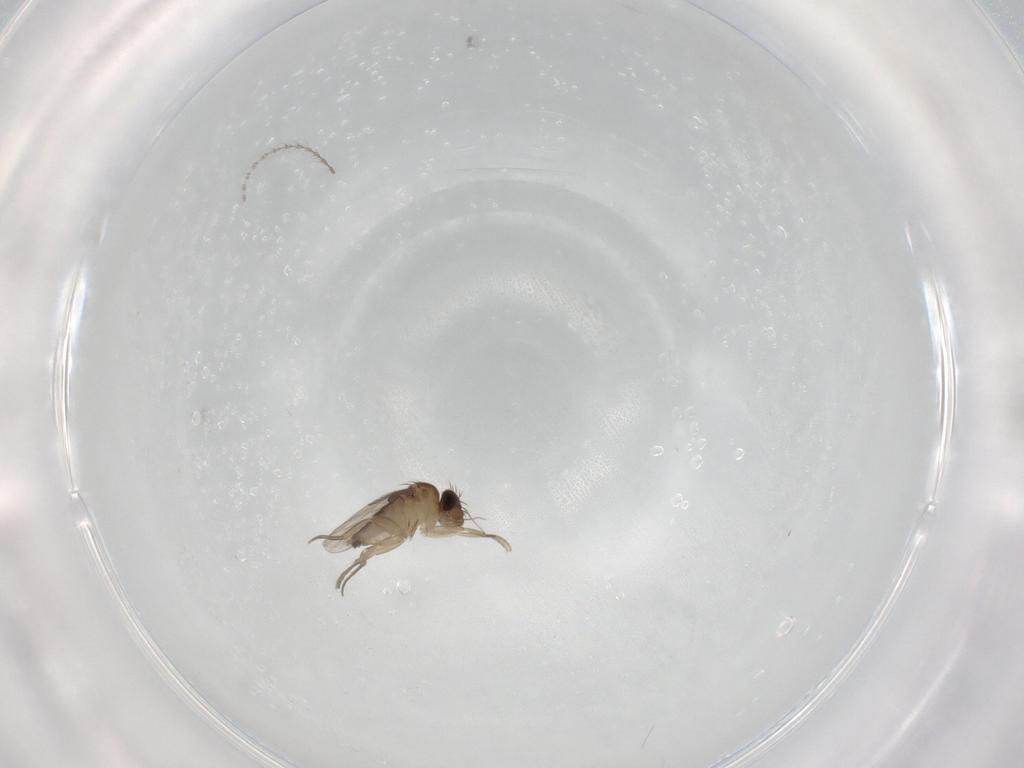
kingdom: Animalia
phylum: Arthropoda
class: Insecta
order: Diptera
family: Phoridae
